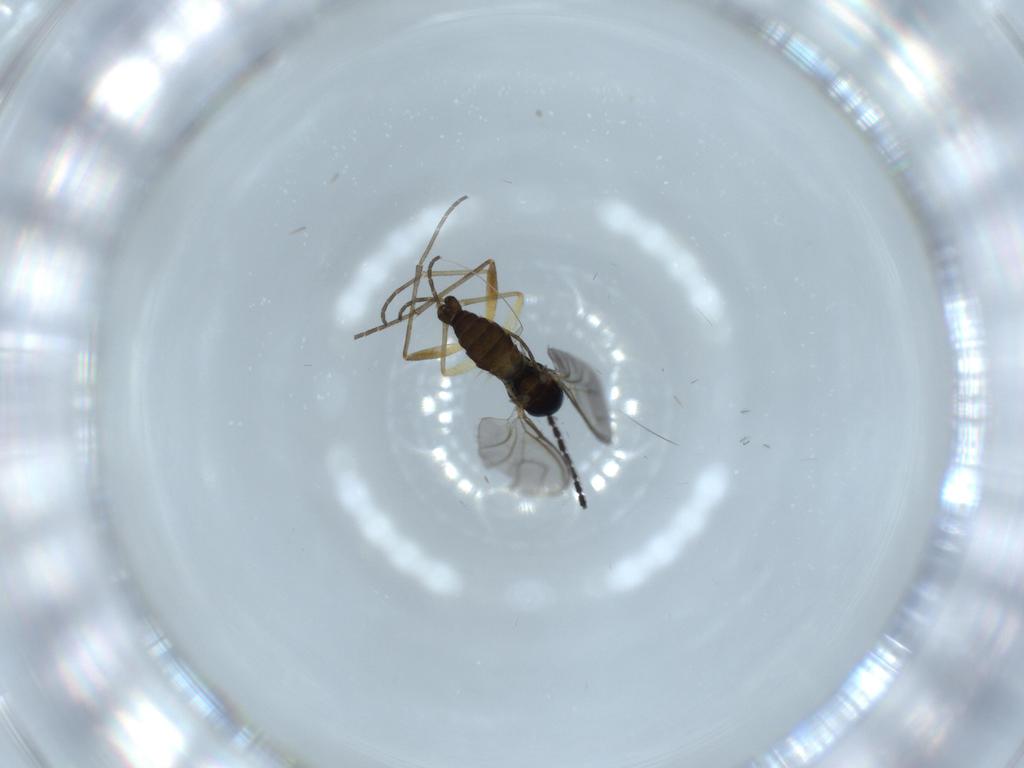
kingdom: Animalia
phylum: Arthropoda
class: Insecta
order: Diptera
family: Sciaridae
